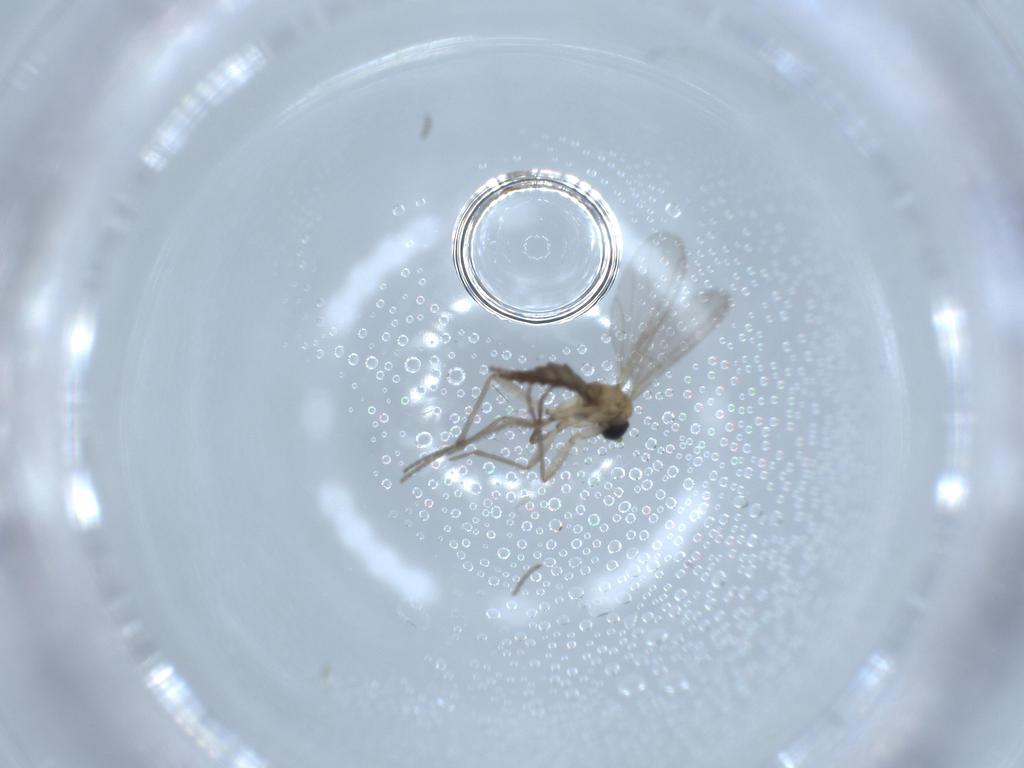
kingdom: Animalia
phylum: Arthropoda
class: Insecta
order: Diptera
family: Sciaridae
